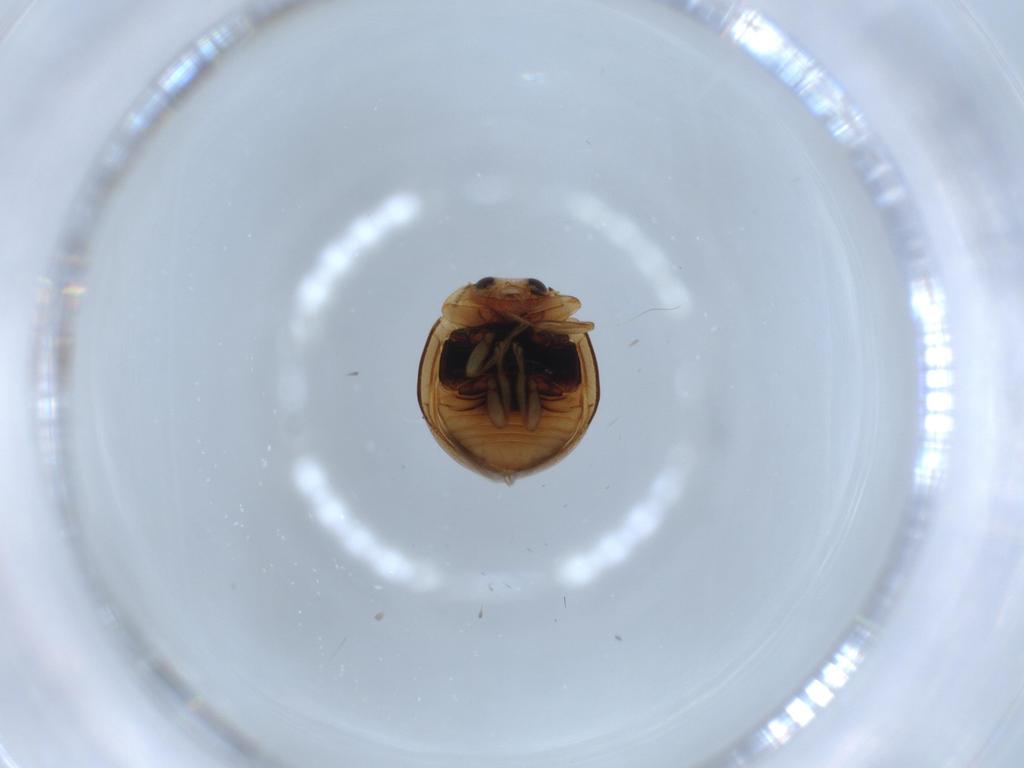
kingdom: Animalia
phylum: Arthropoda
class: Insecta
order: Coleoptera
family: Coccinellidae
